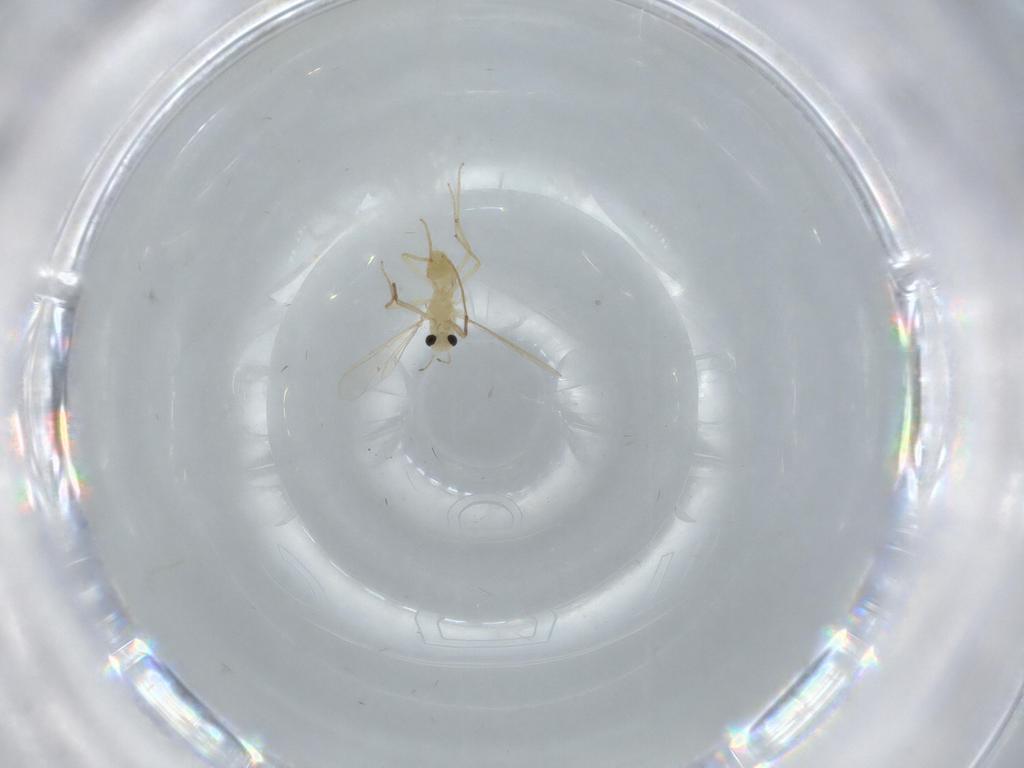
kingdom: Animalia
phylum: Arthropoda
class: Insecta
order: Diptera
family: Chironomidae
